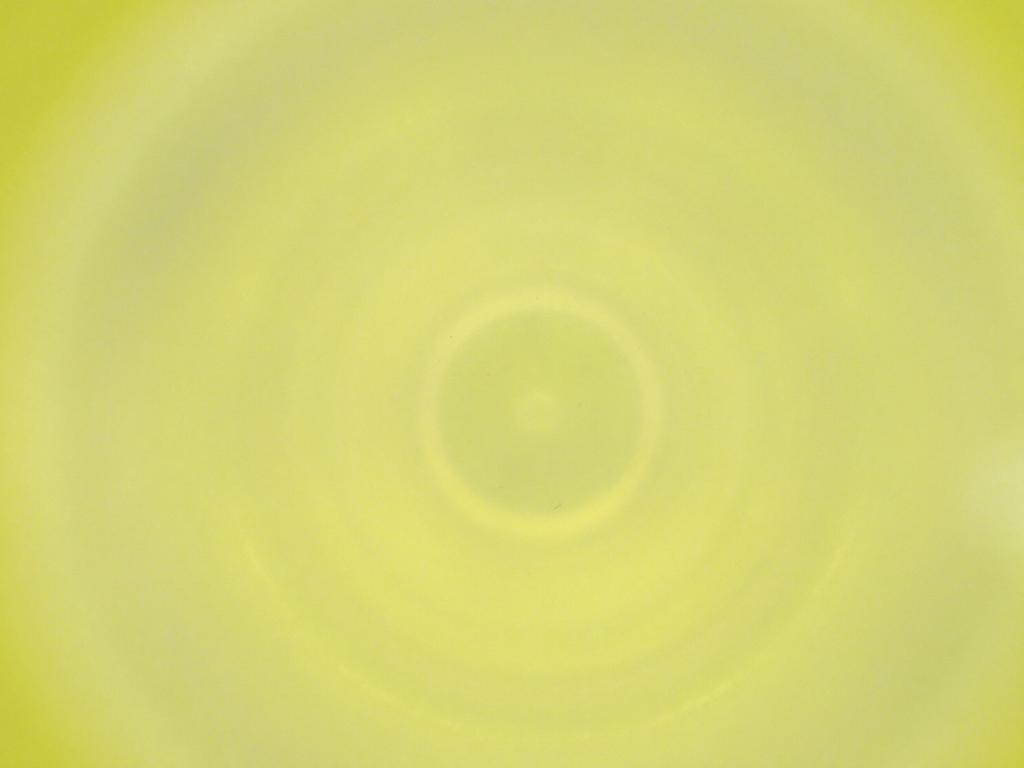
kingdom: Animalia
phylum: Arthropoda
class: Insecta
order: Diptera
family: Cecidomyiidae
